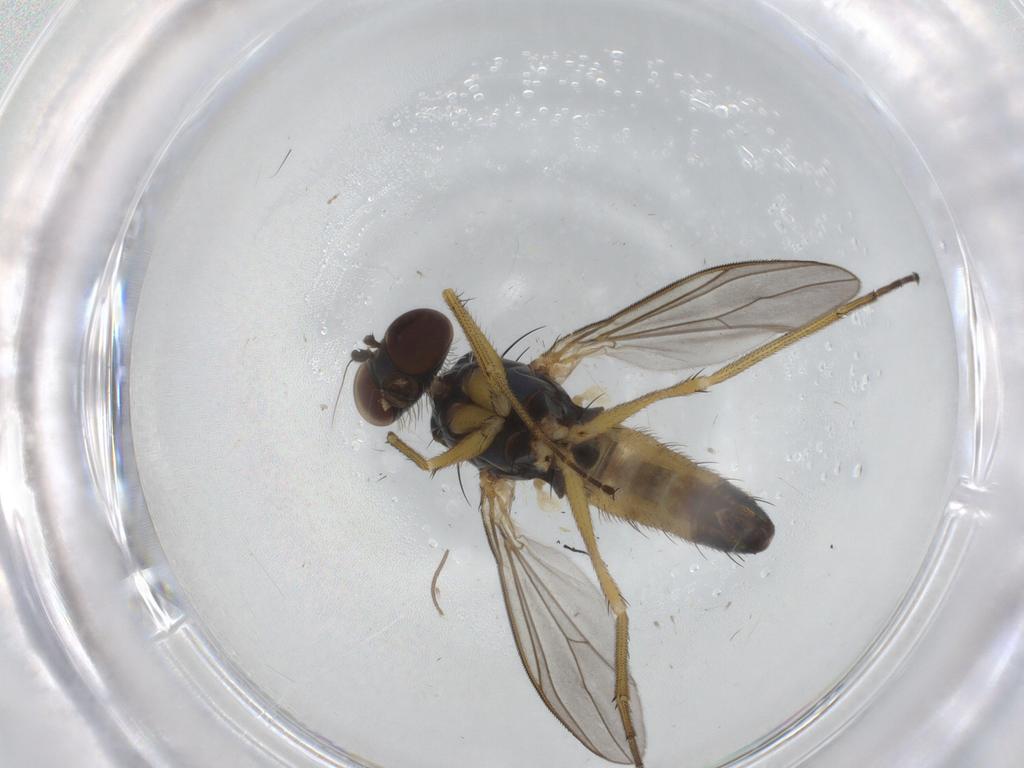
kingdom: Animalia
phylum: Arthropoda
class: Insecta
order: Diptera
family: Cecidomyiidae
